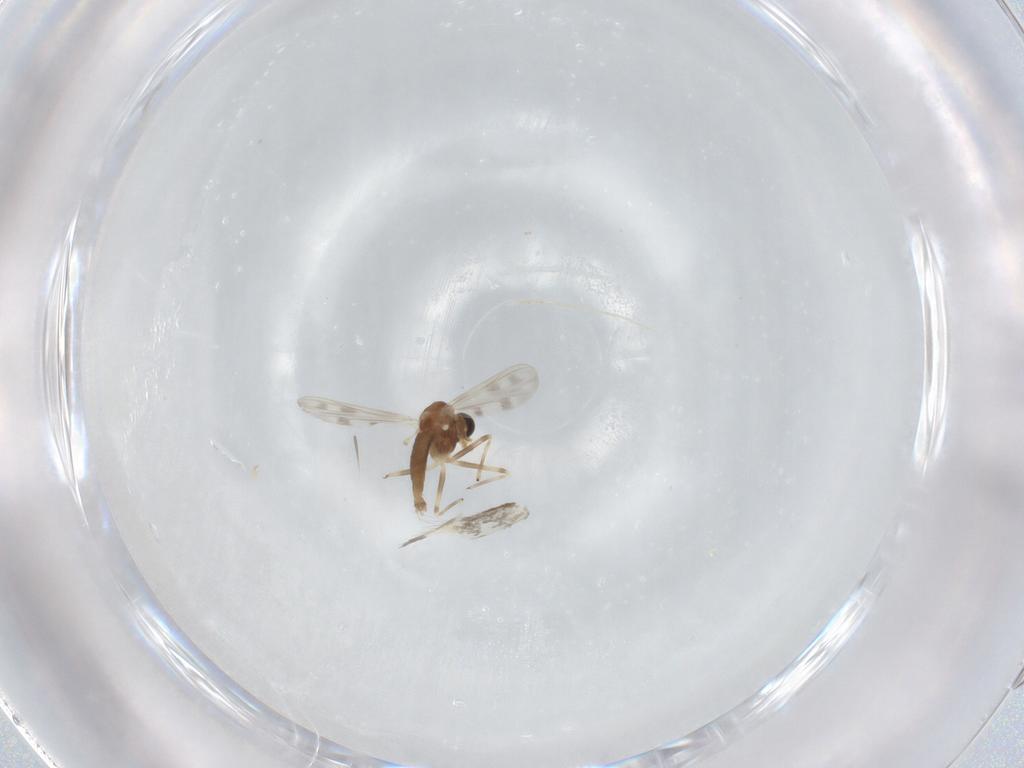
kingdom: Animalia
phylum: Arthropoda
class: Insecta
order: Diptera
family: Chironomidae
